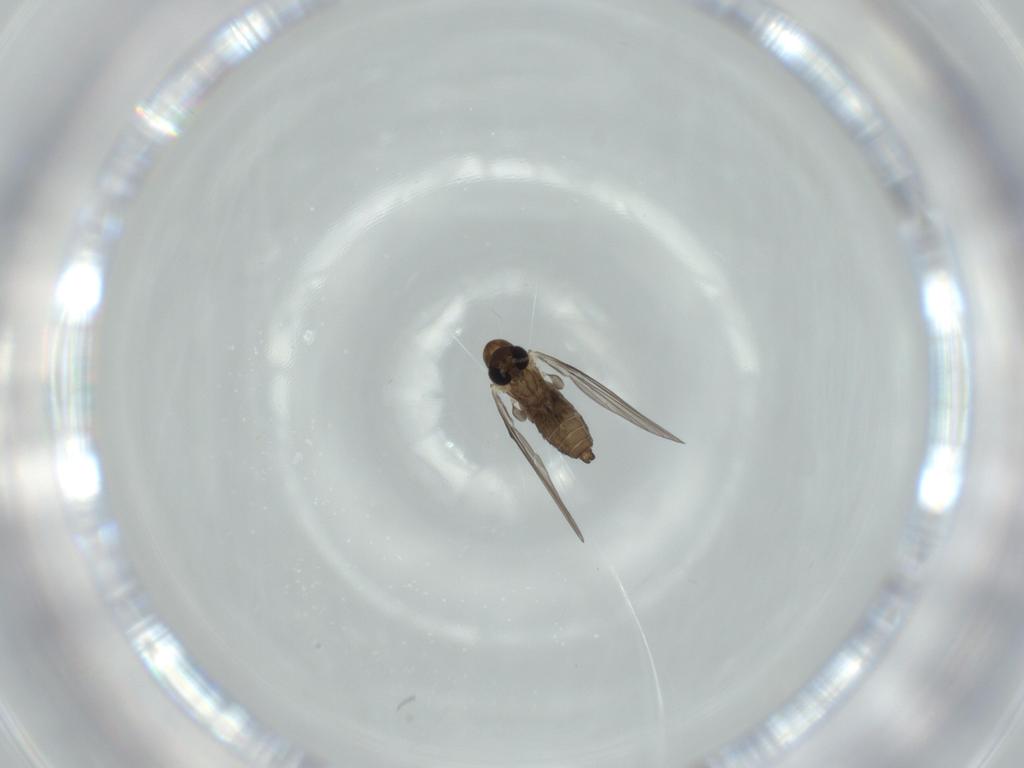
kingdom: Animalia
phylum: Arthropoda
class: Insecta
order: Diptera
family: Psychodidae
